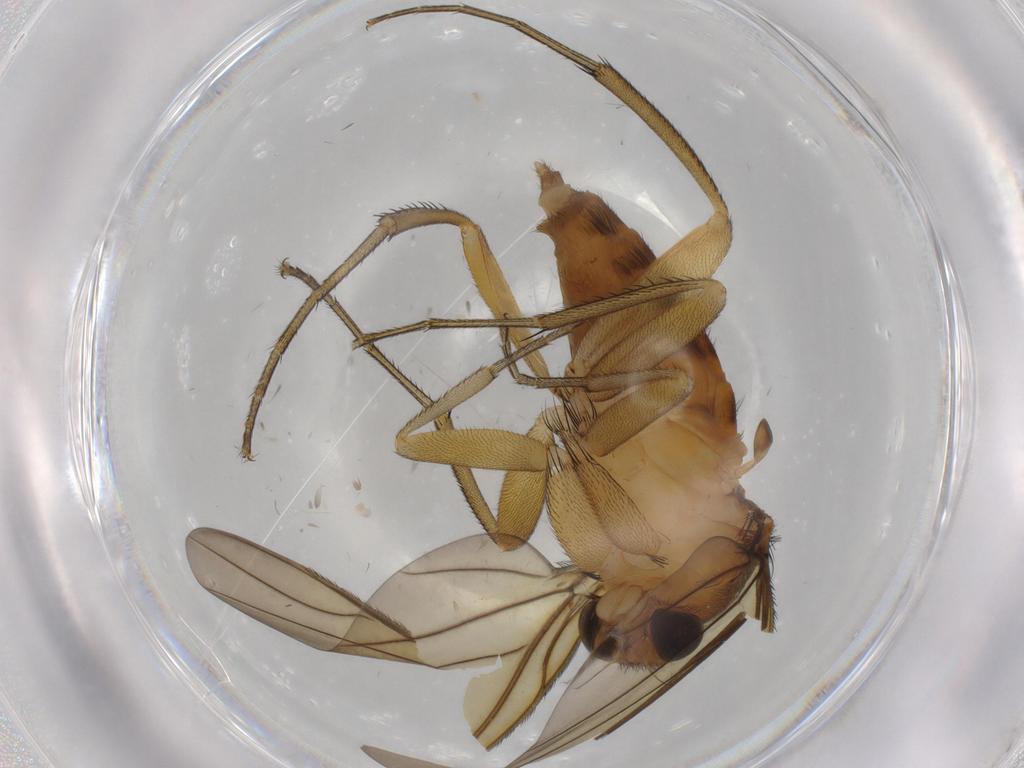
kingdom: Animalia
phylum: Arthropoda
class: Insecta
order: Diptera
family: Phoridae
